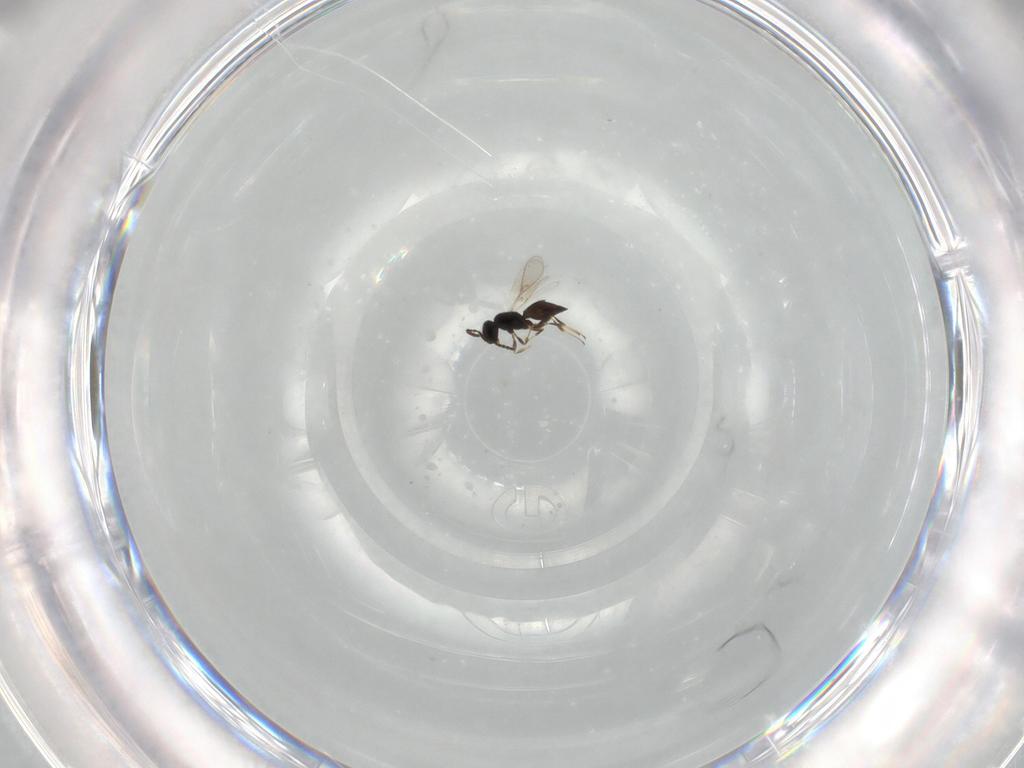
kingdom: Animalia
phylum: Arthropoda
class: Insecta
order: Hymenoptera
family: Scelionidae
